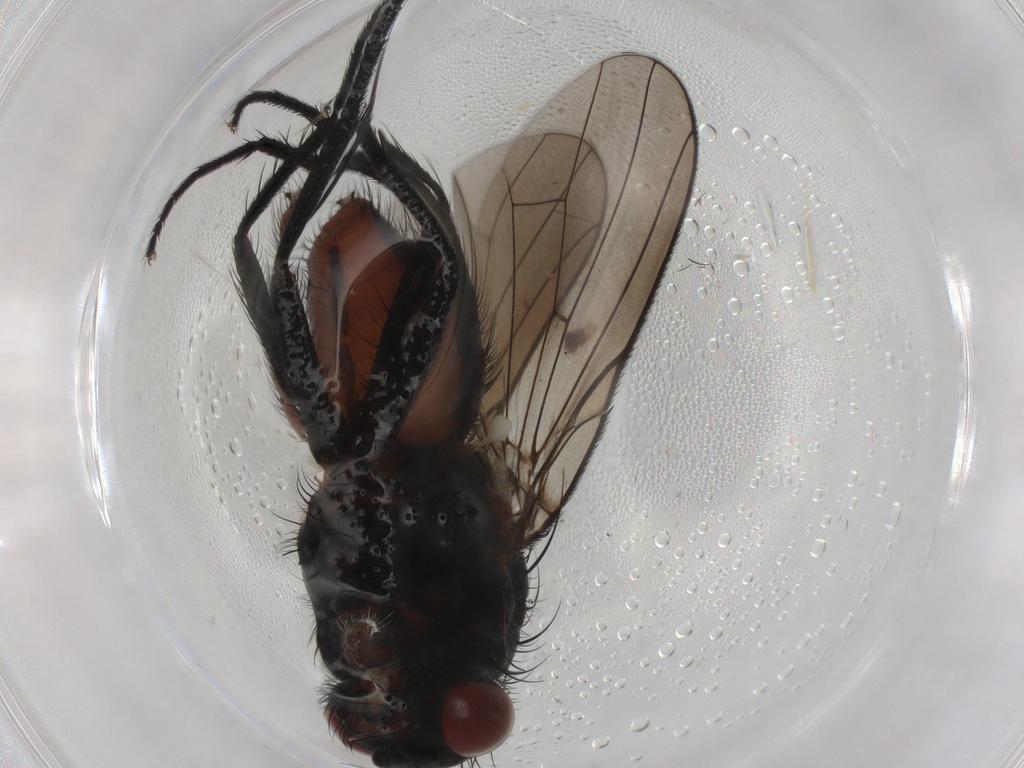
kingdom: Animalia
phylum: Arthropoda
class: Insecta
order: Diptera
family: Anthomyiidae
